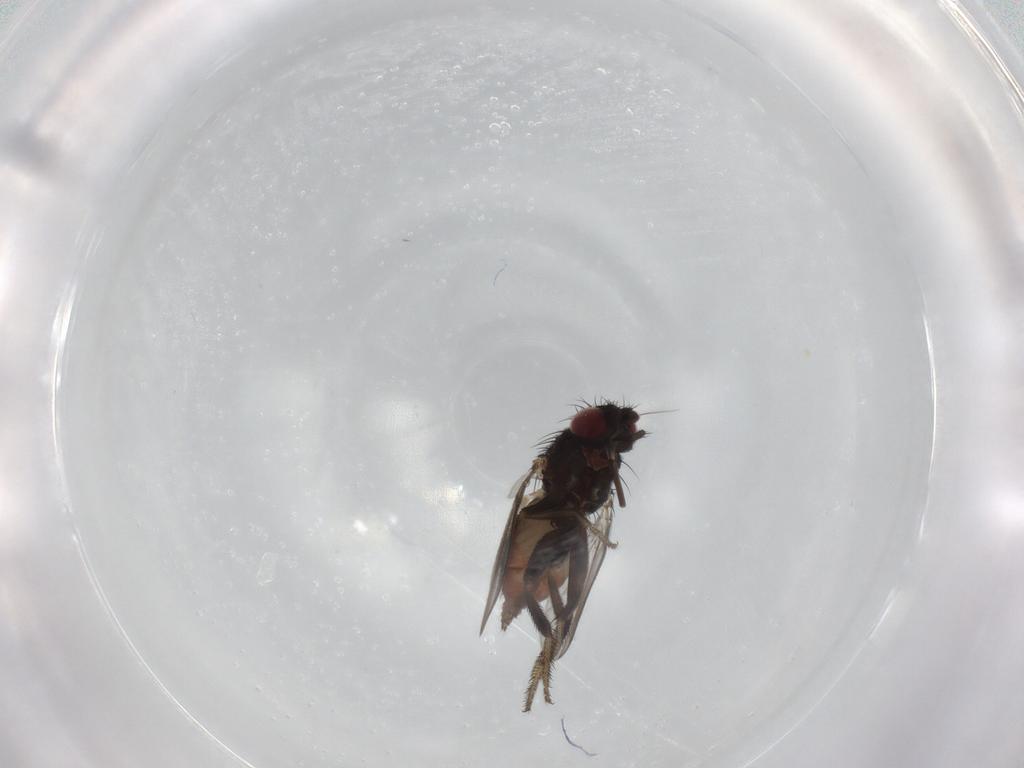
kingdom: Animalia
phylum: Arthropoda
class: Insecta
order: Diptera
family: Milichiidae
